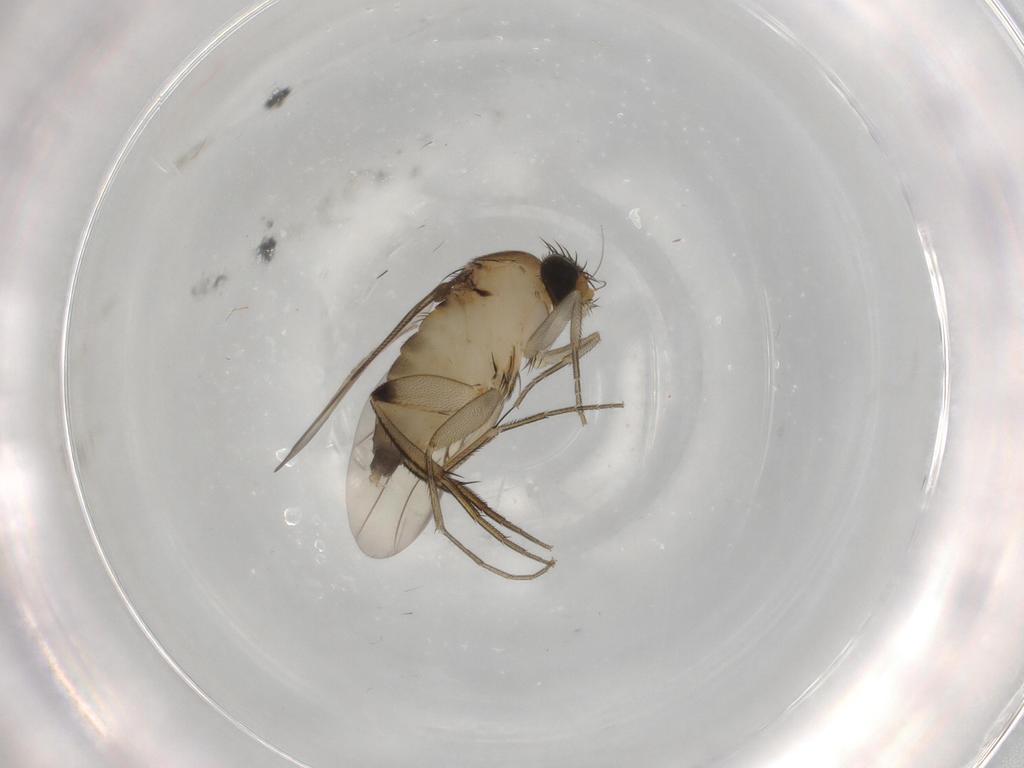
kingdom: Animalia
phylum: Arthropoda
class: Insecta
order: Diptera
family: Phoridae
